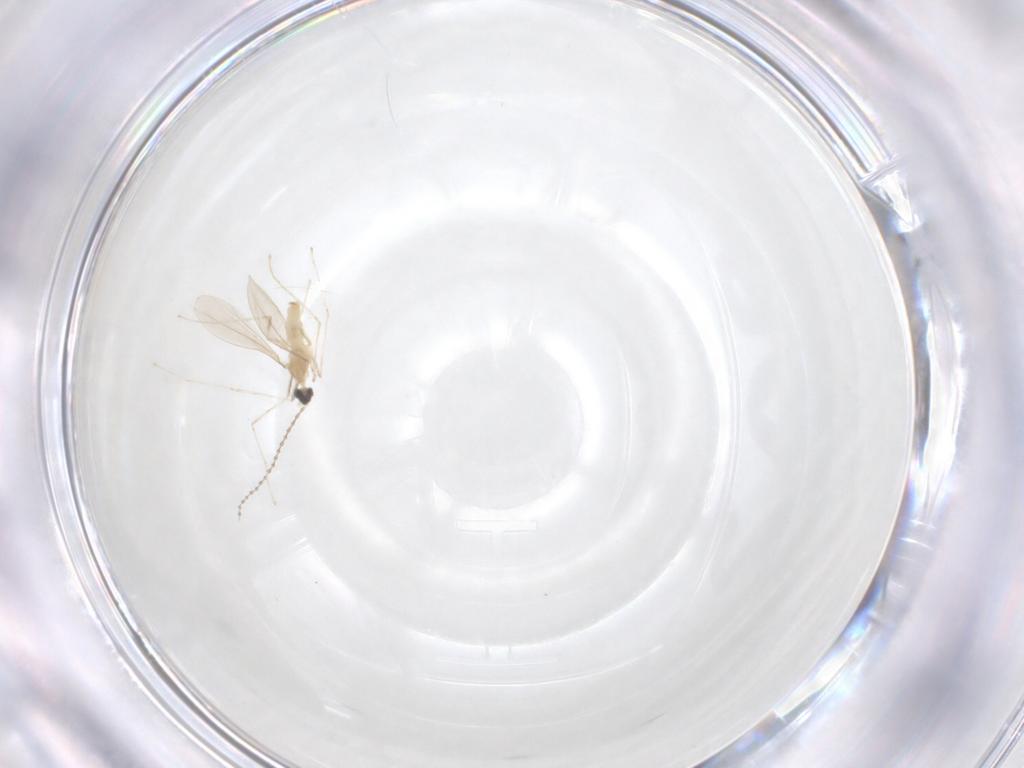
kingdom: Animalia
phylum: Arthropoda
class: Insecta
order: Diptera
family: Cecidomyiidae
